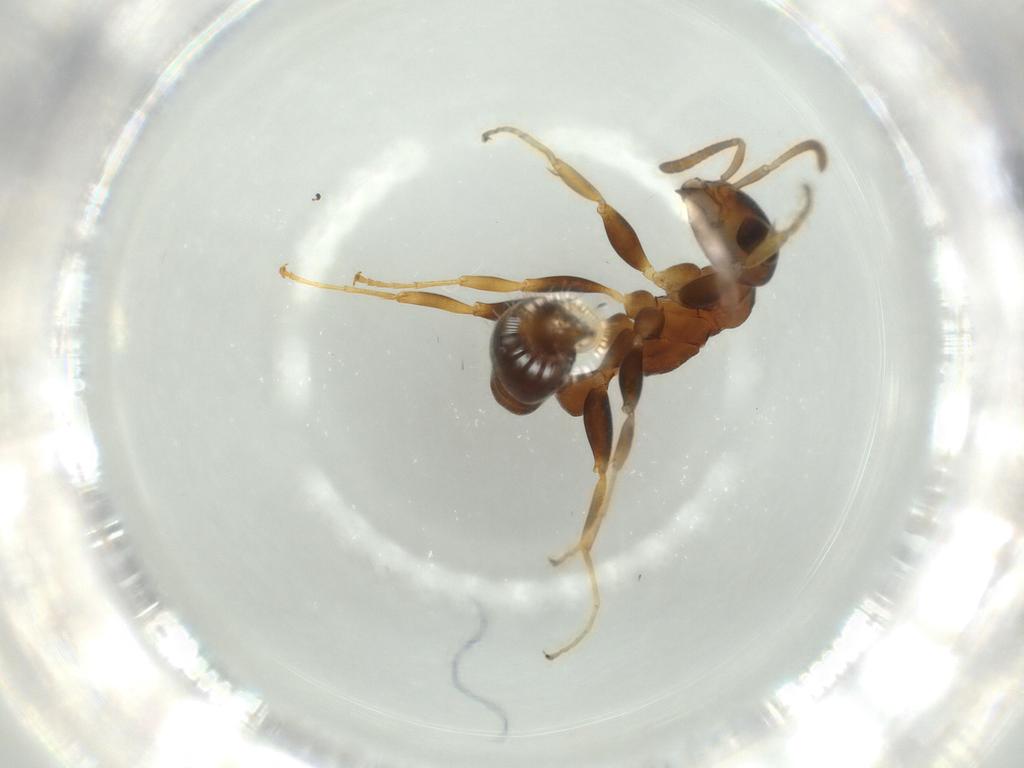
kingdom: Animalia
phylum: Arthropoda
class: Insecta
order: Hymenoptera
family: Formicidae
